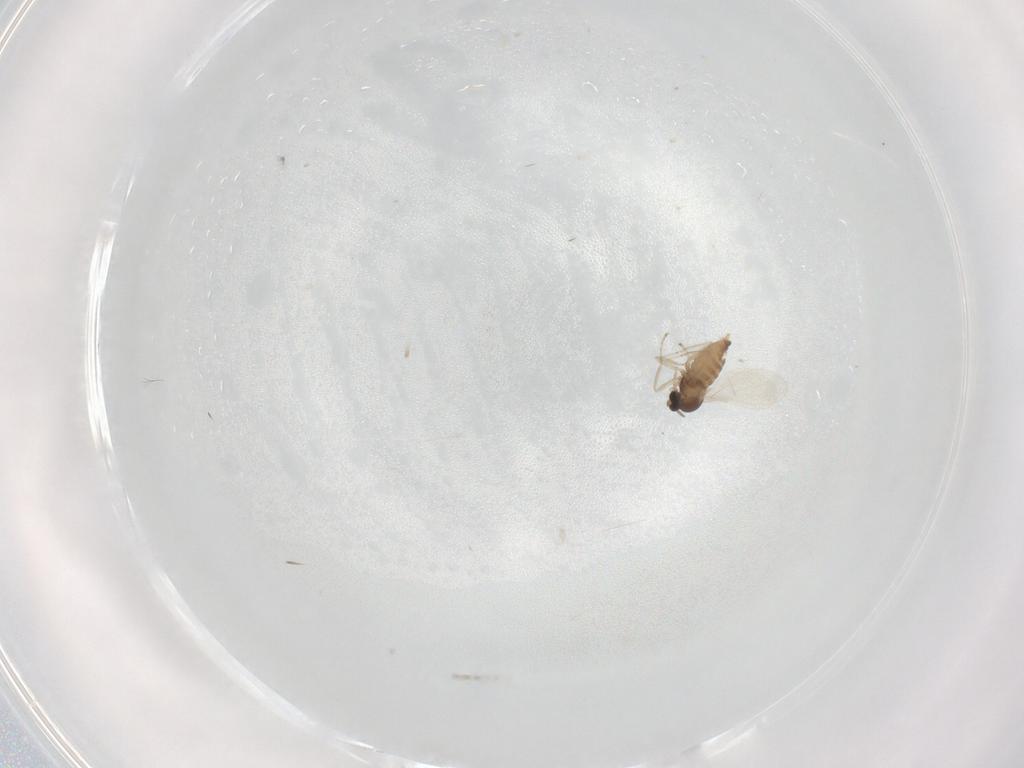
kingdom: Animalia
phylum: Arthropoda
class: Insecta
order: Diptera
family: Cecidomyiidae
